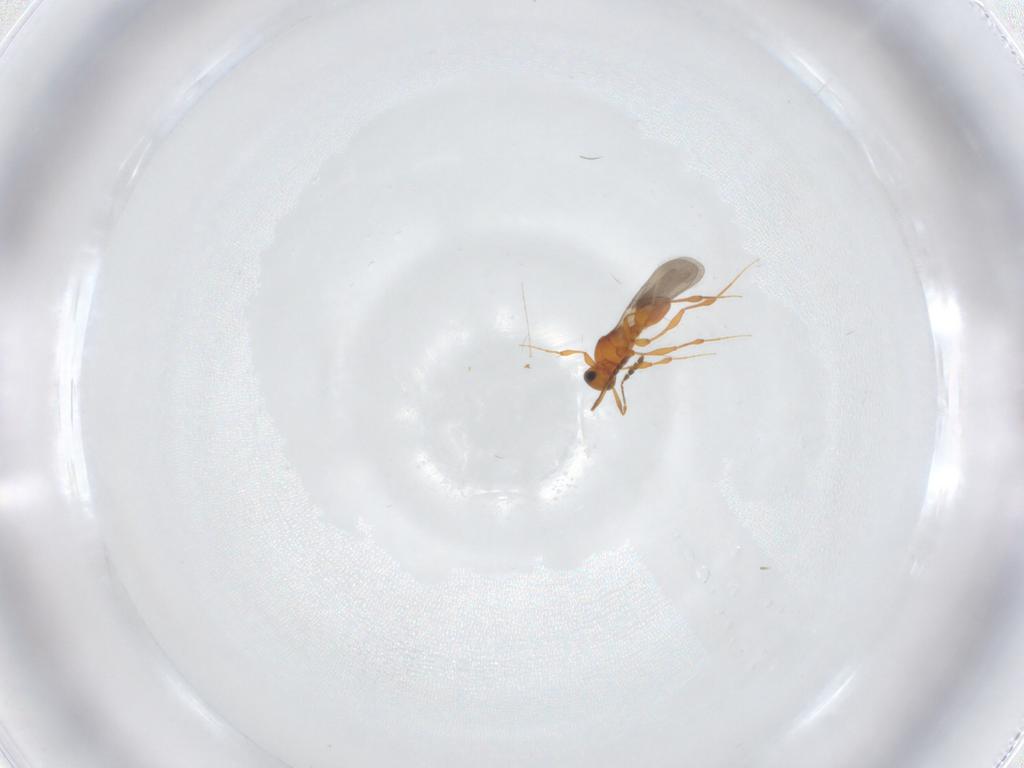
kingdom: Animalia
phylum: Arthropoda
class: Insecta
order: Hymenoptera
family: Platygastridae
